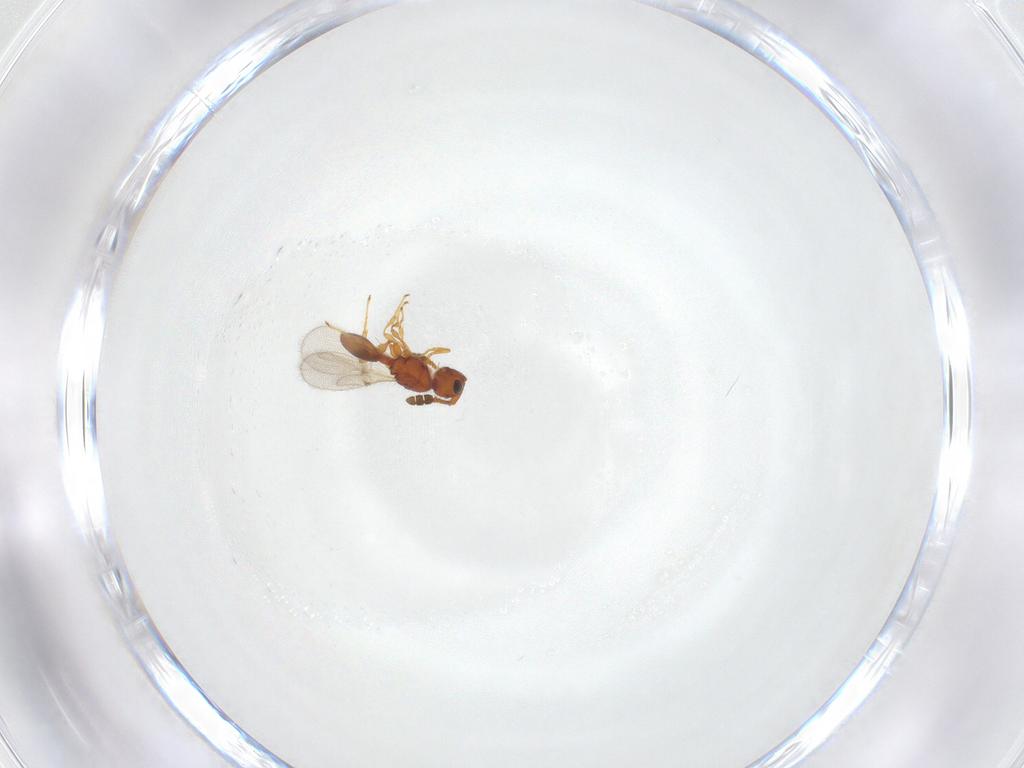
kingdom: Animalia
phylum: Arthropoda
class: Insecta
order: Hymenoptera
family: Diapriidae
